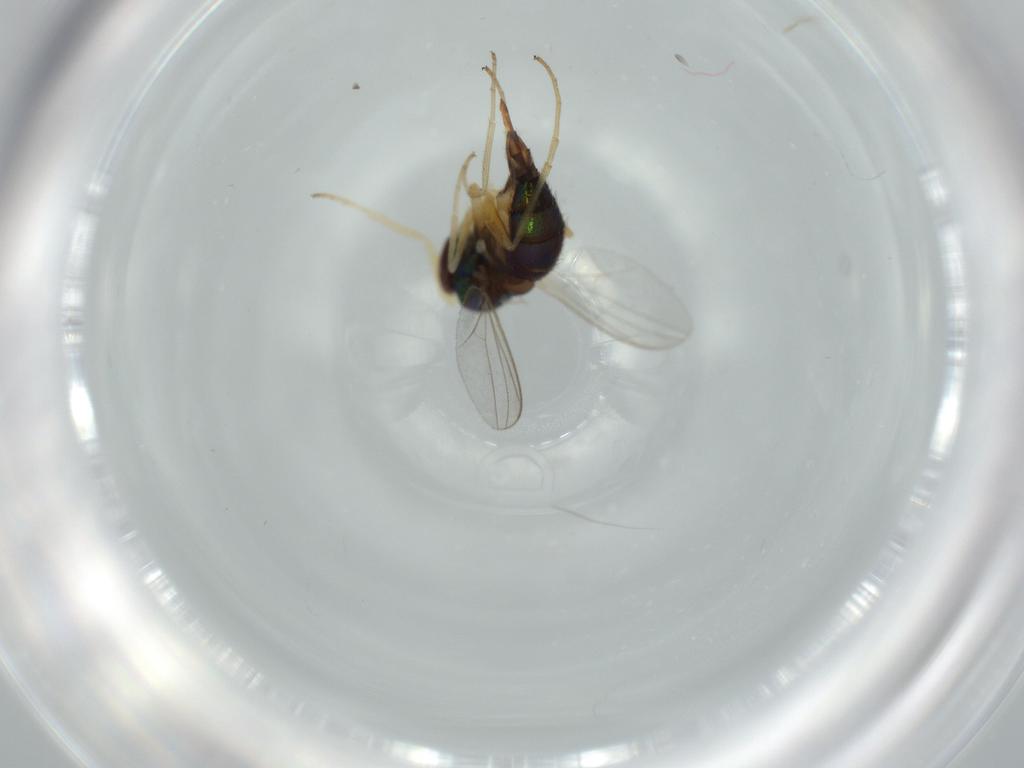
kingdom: Animalia
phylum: Arthropoda
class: Insecta
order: Diptera
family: Dolichopodidae
